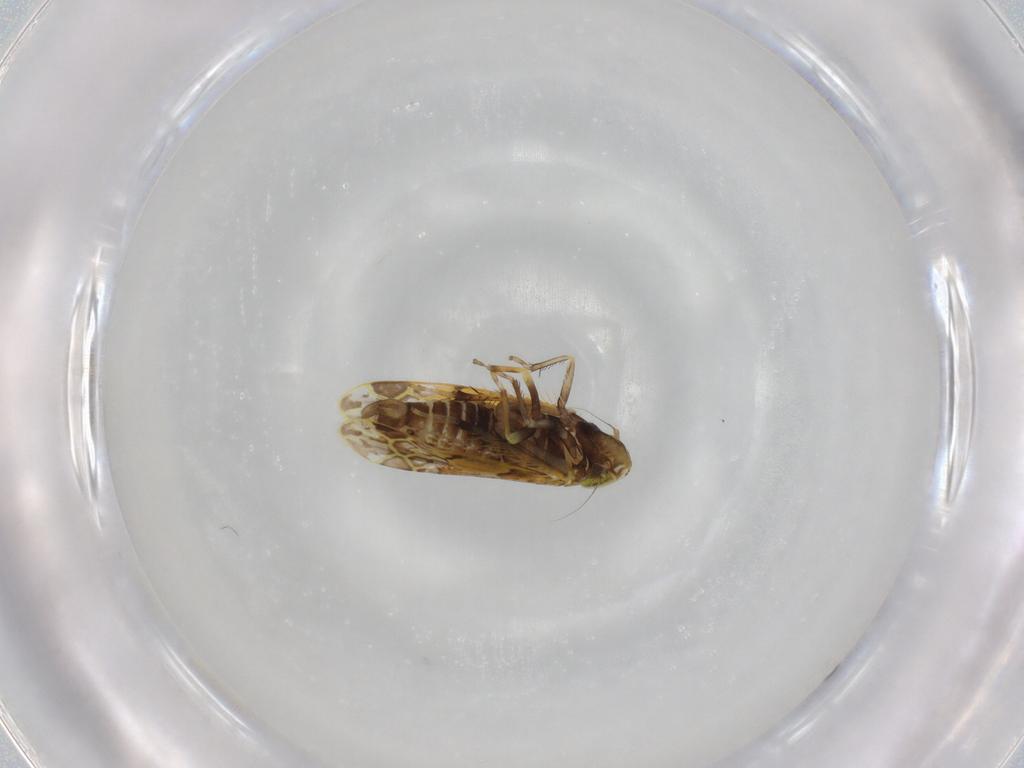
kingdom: Animalia
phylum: Arthropoda
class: Insecta
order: Hemiptera
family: Cicadellidae
